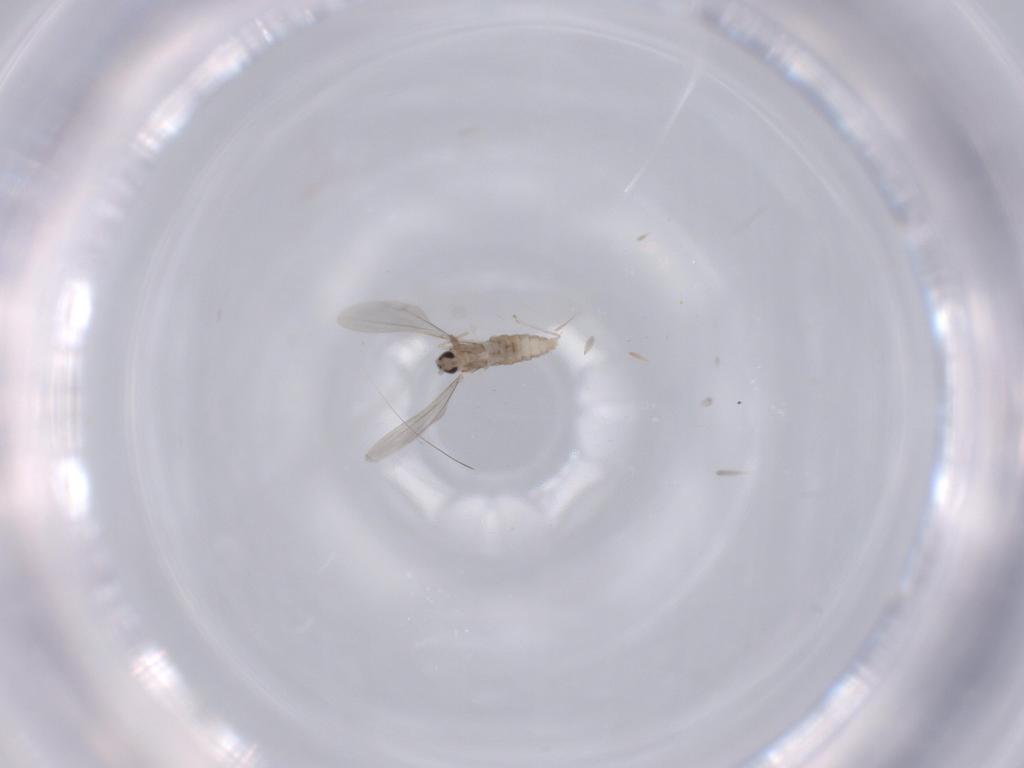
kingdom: Animalia
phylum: Arthropoda
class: Insecta
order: Diptera
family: Cecidomyiidae
